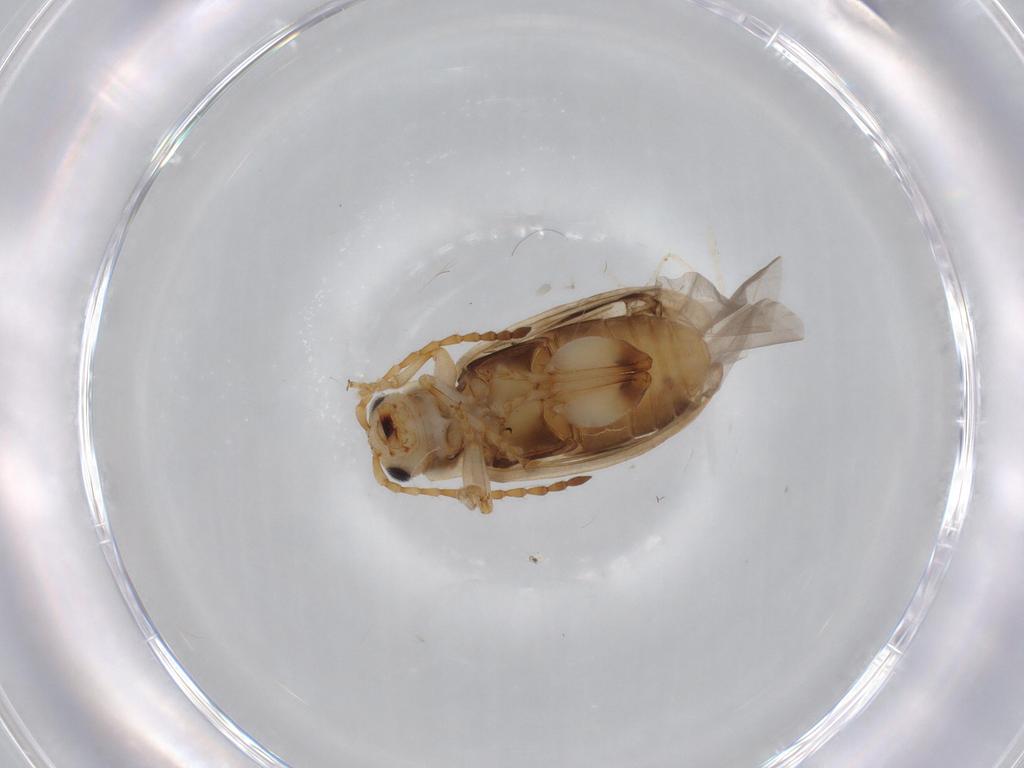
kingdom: Animalia
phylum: Arthropoda
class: Insecta
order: Coleoptera
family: Chrysomelidae
